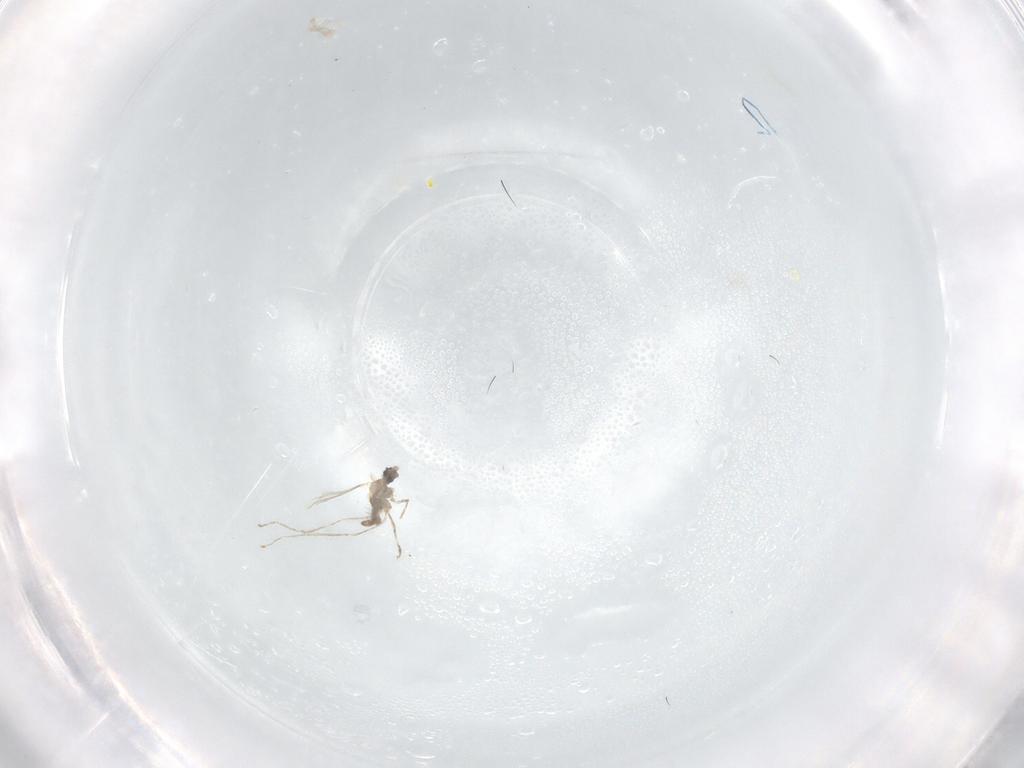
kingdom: Animalia
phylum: Arthropoda
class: Insecta
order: Diptera
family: Cecidomyiidae
